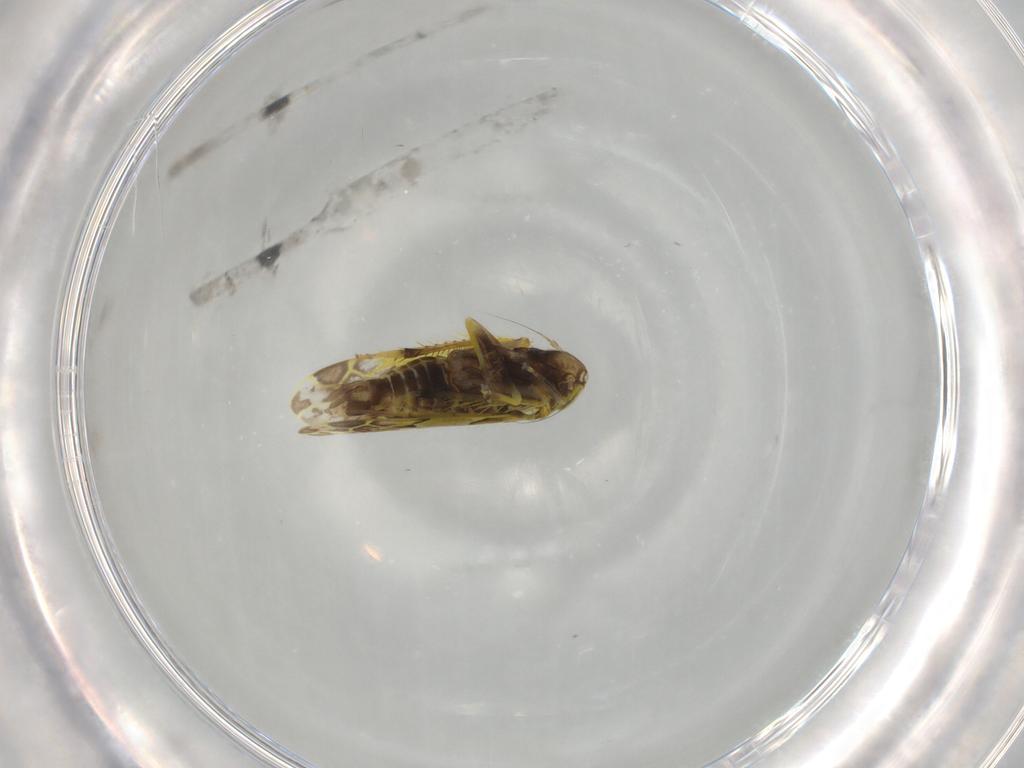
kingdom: Animalia
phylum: Arthropoda
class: Insecta
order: Hemiptera
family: Cicadellidae
